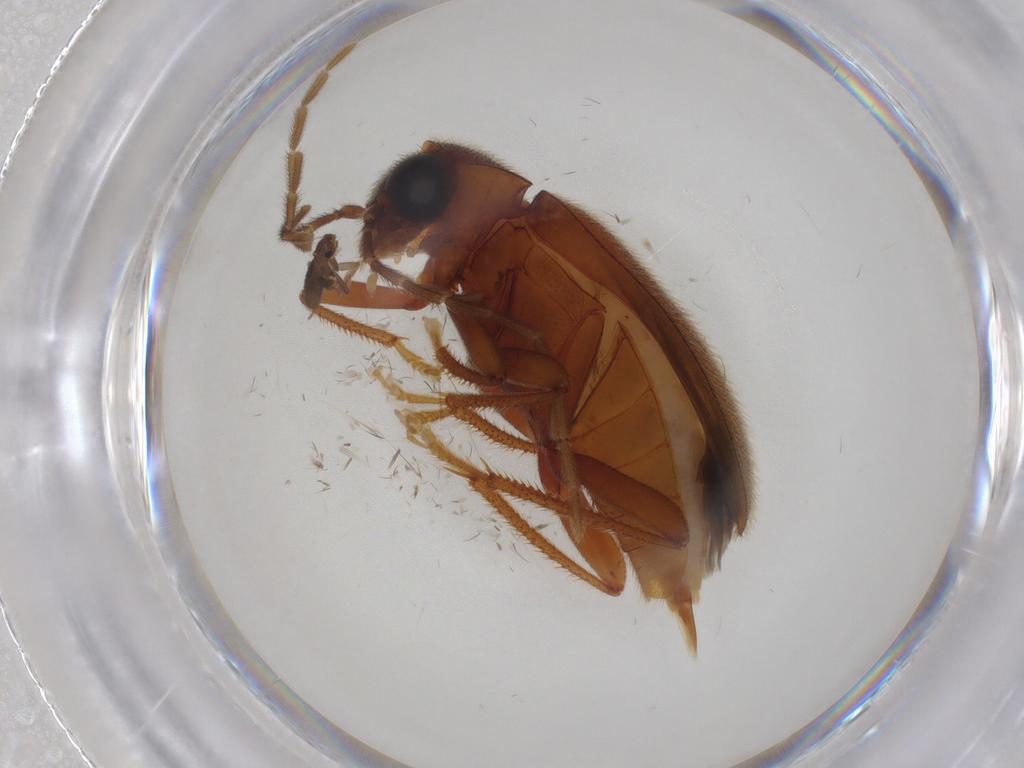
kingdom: Animalia
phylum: Arthropoda
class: Insecta
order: Coleoptera
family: Ptilodactylidae
